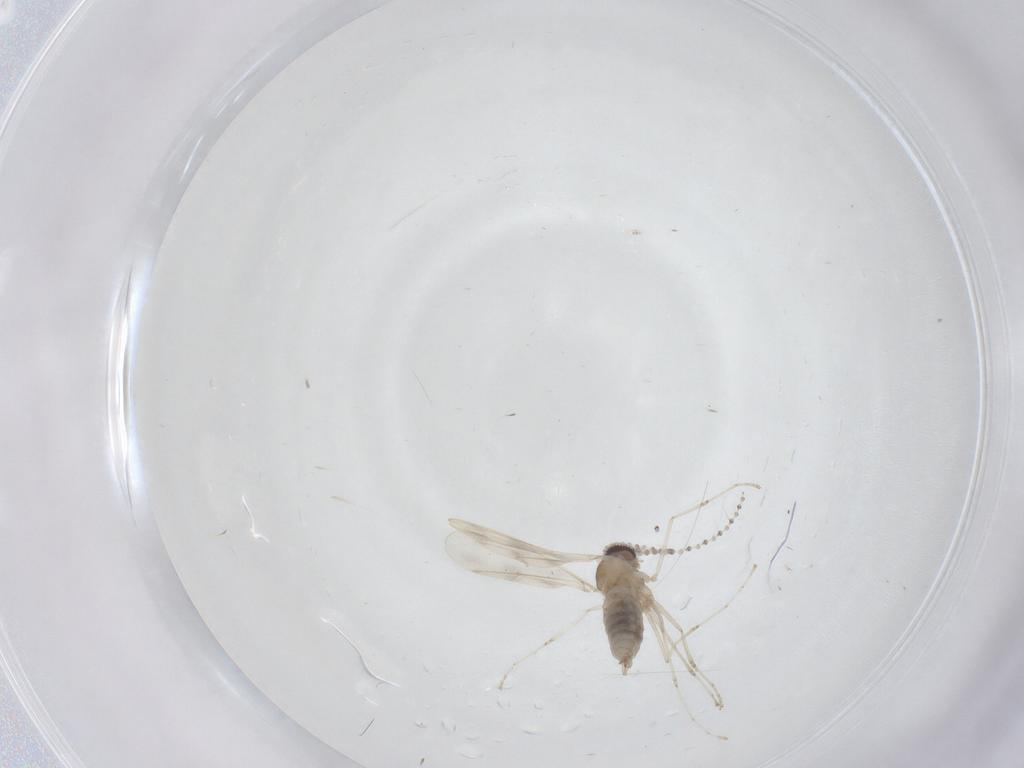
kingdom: Animalia
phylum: Arthropoda
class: Insecta
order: Diptera
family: Cecidomyiidae
